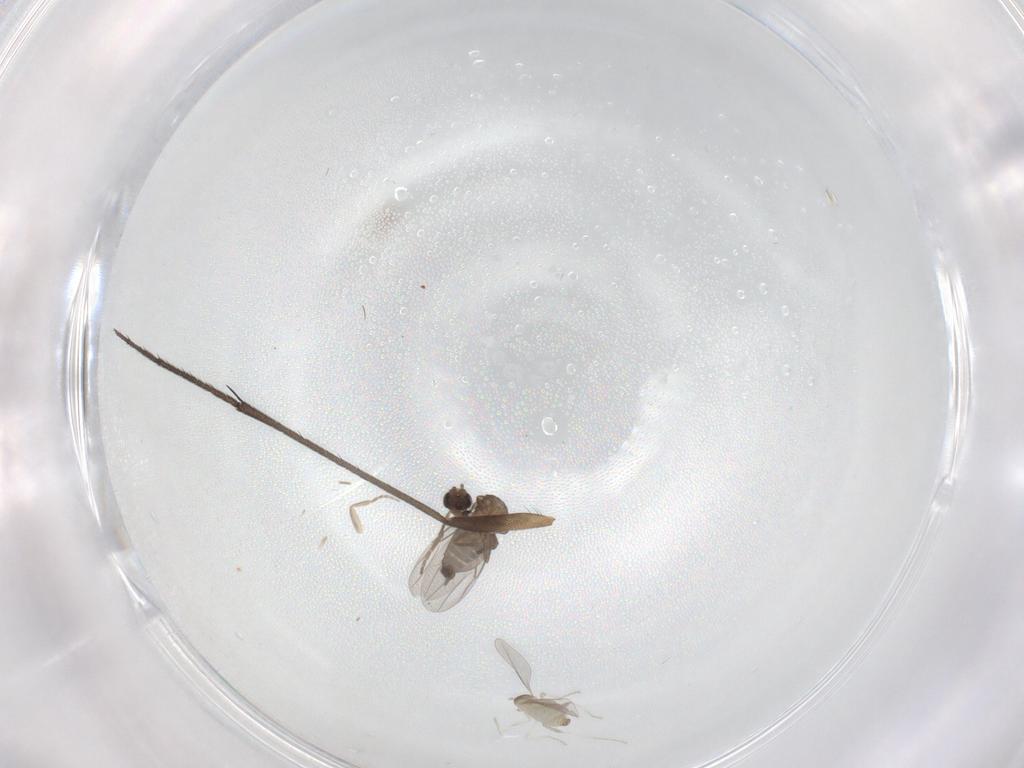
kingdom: Animalia
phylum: Arthropoda
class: Insecta
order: Diptera
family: Cecidomyiidae
